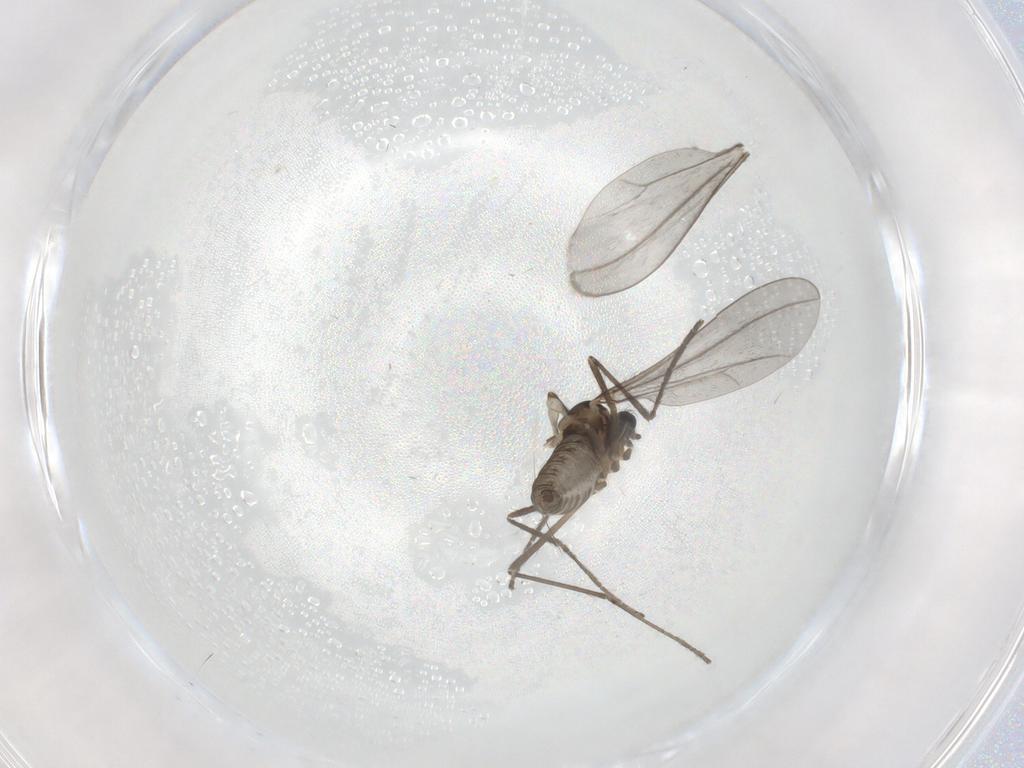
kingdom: Animalia
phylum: Arthropoda
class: Insecta
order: Diptera
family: Cecidomyiidae
